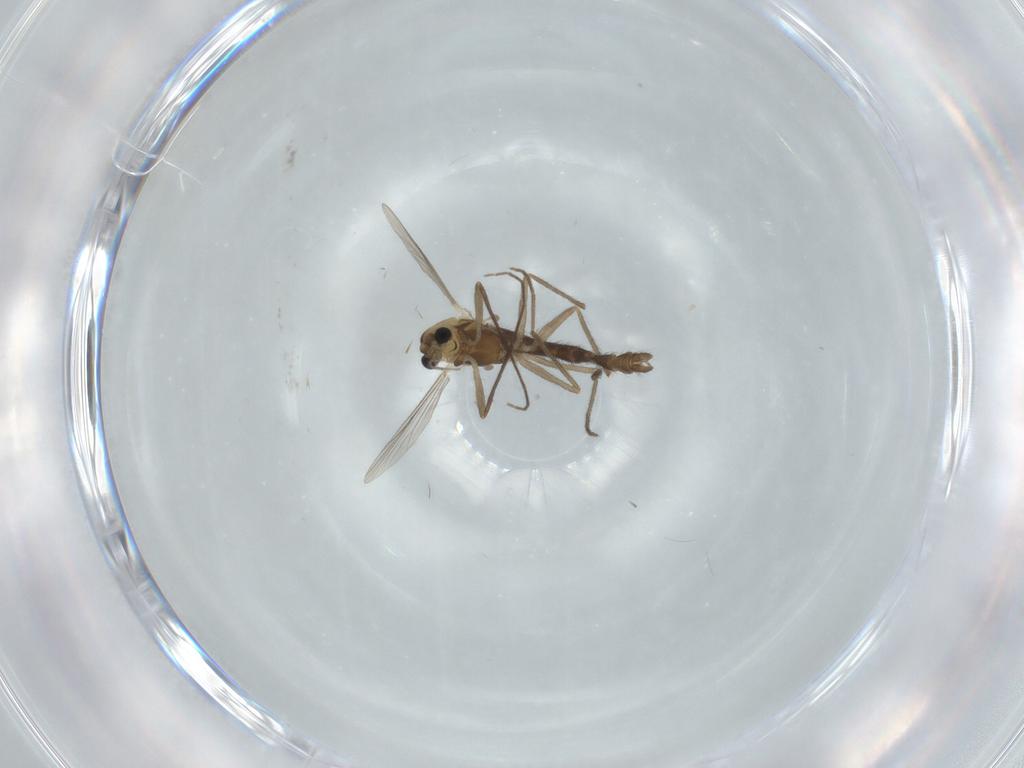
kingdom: Animalia
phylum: Arthropoda
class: Insecta
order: Diptera
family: Chironomidae
